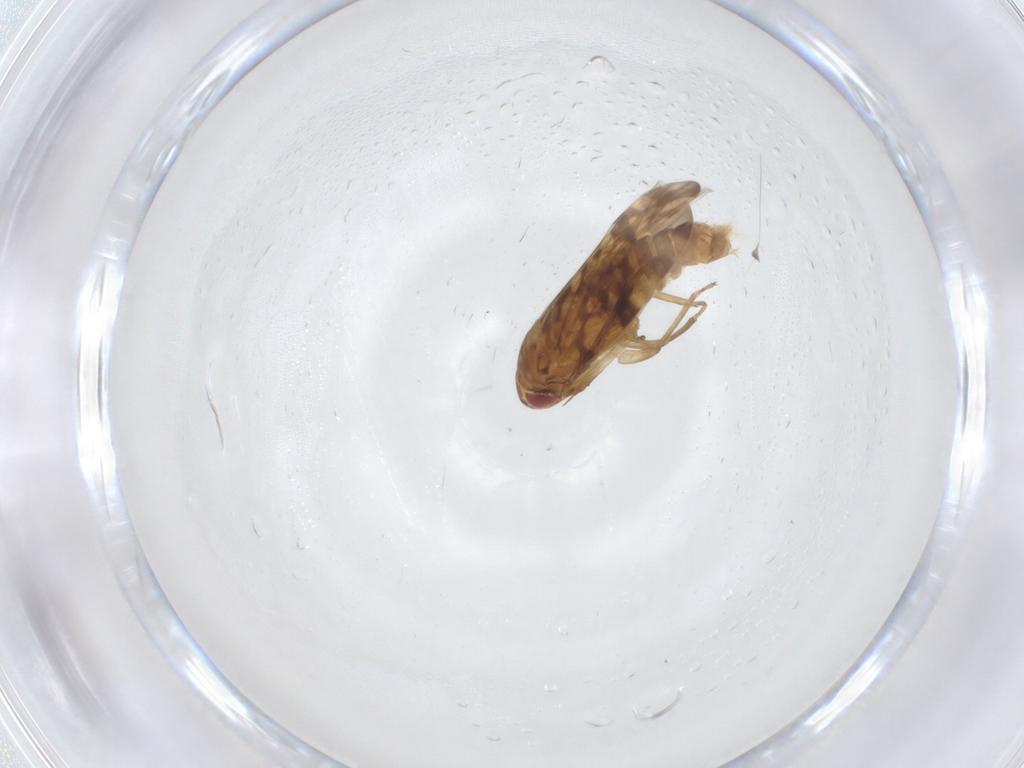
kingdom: Animalia
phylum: Arthropoda
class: Insecta
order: Hemiptera
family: Cicadellidae
